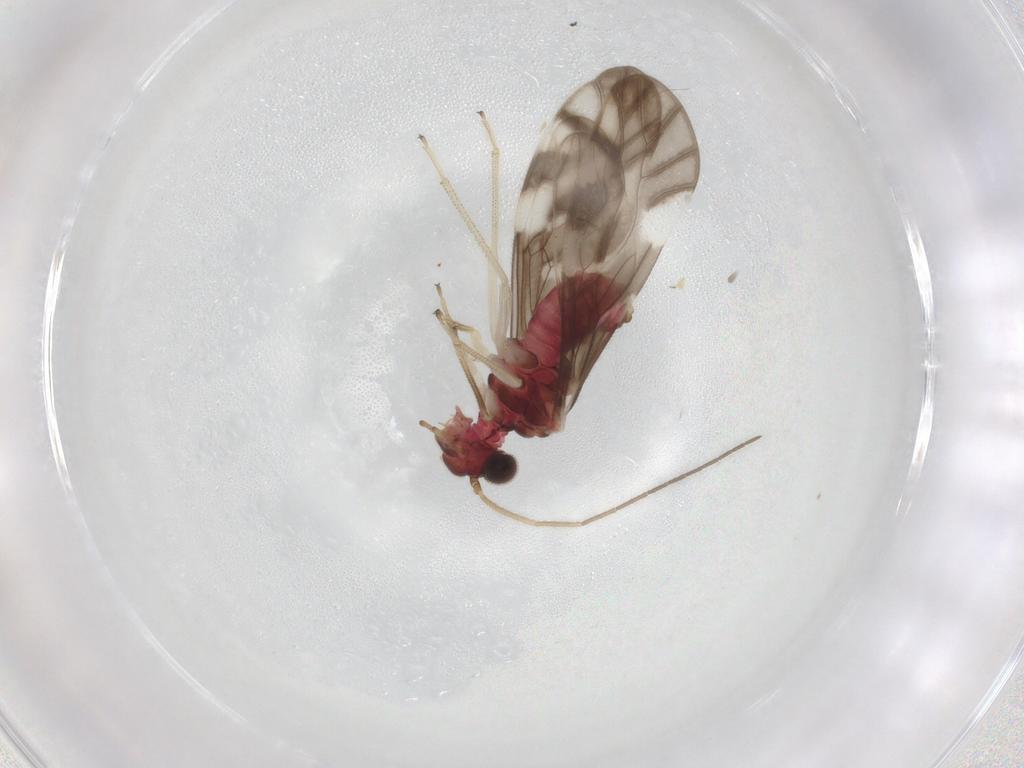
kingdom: Animalia
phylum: Arthropoda
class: Insecta
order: Psocodea
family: Caeciliusidae
